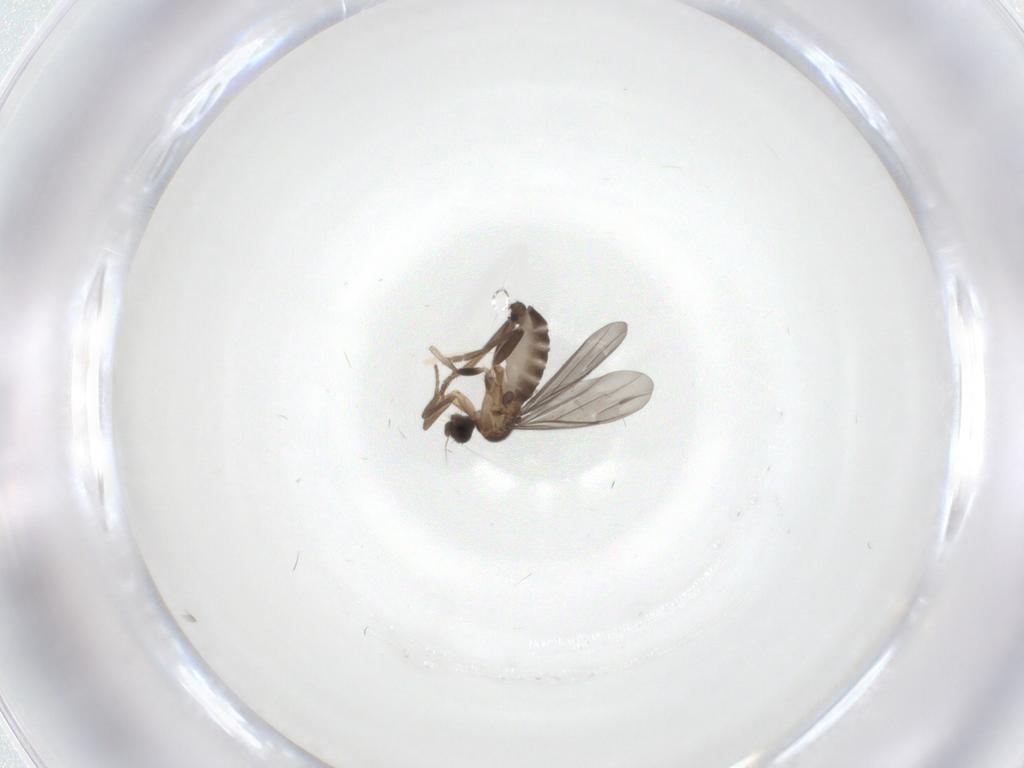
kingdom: Animalia
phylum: Arthropoda
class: Insecta
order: Diptera
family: Phoridae
